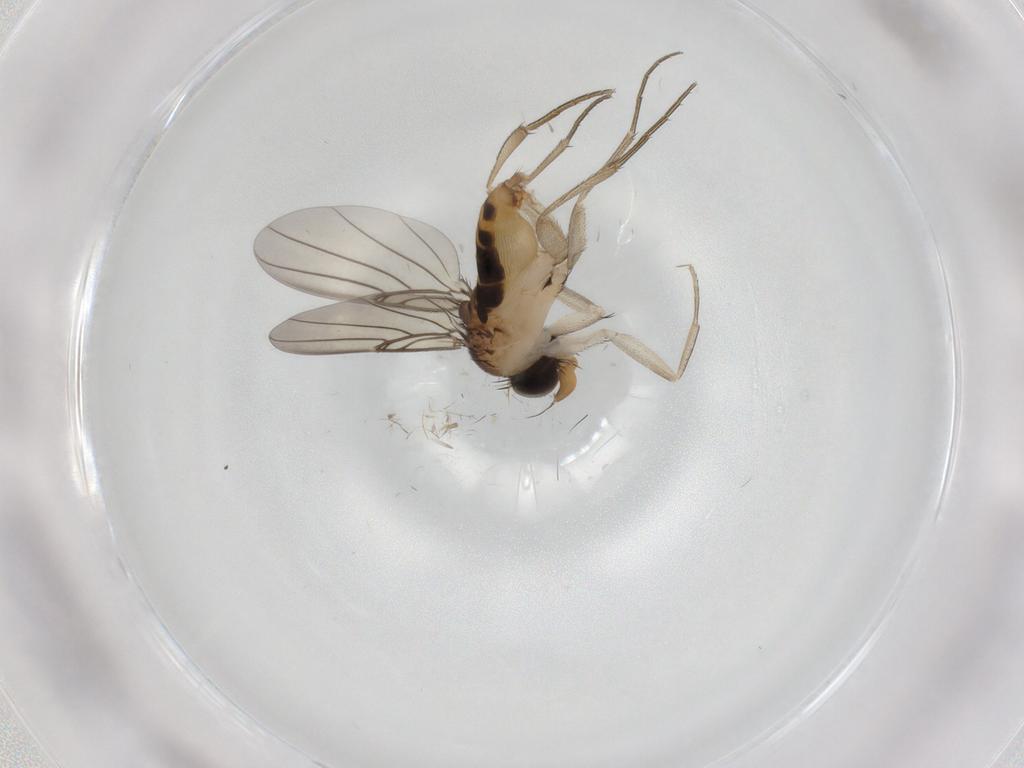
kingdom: Animalia
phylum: Arthropoda
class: Insecta
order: Diptera
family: Phoridae
